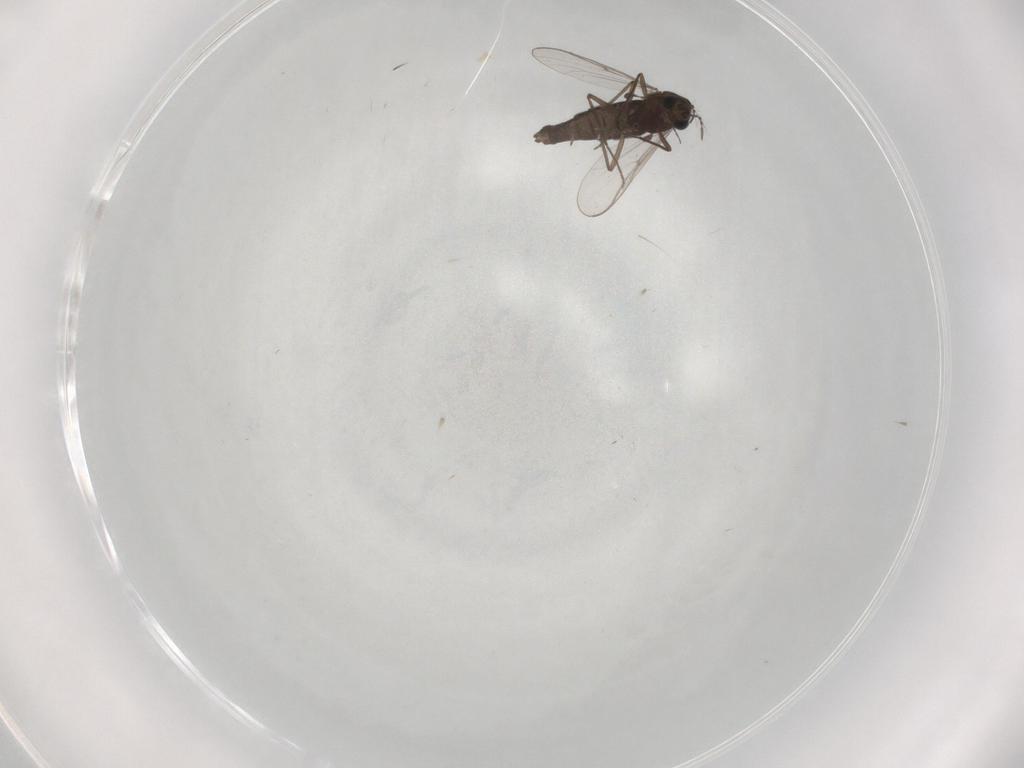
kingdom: Animalia
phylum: Arthropoda
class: Insecta
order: Diptera
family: Chironomidae
